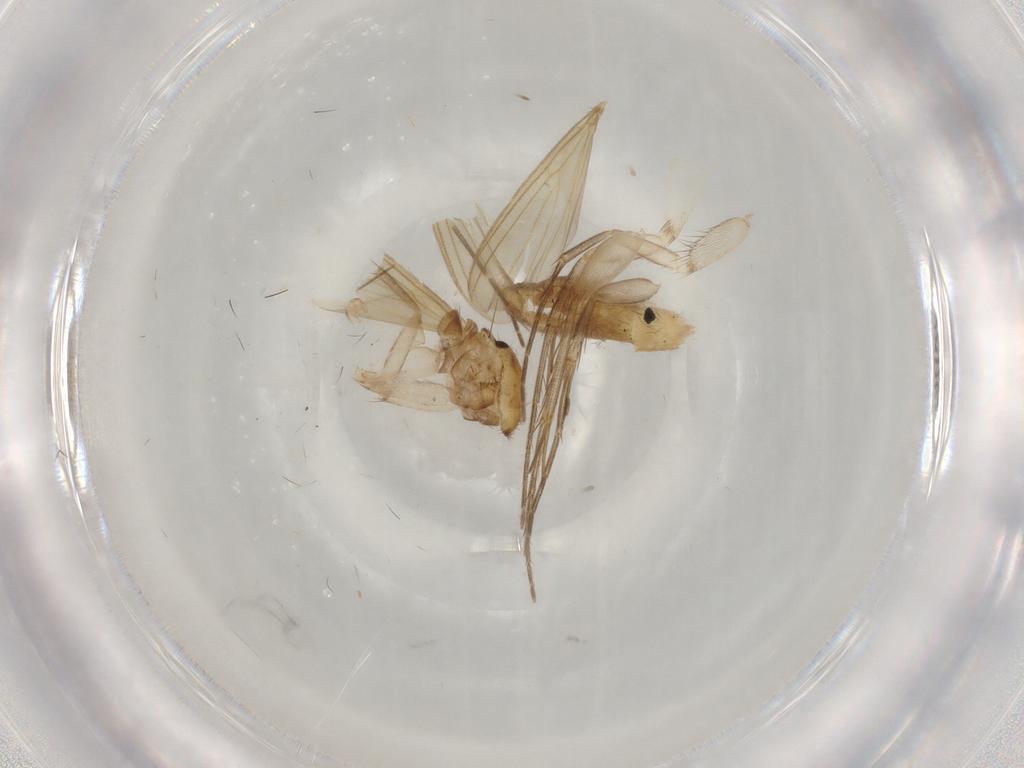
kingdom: Animalia
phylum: Arthropoda
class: Insecta
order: Diptera
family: Mycetophilidae
